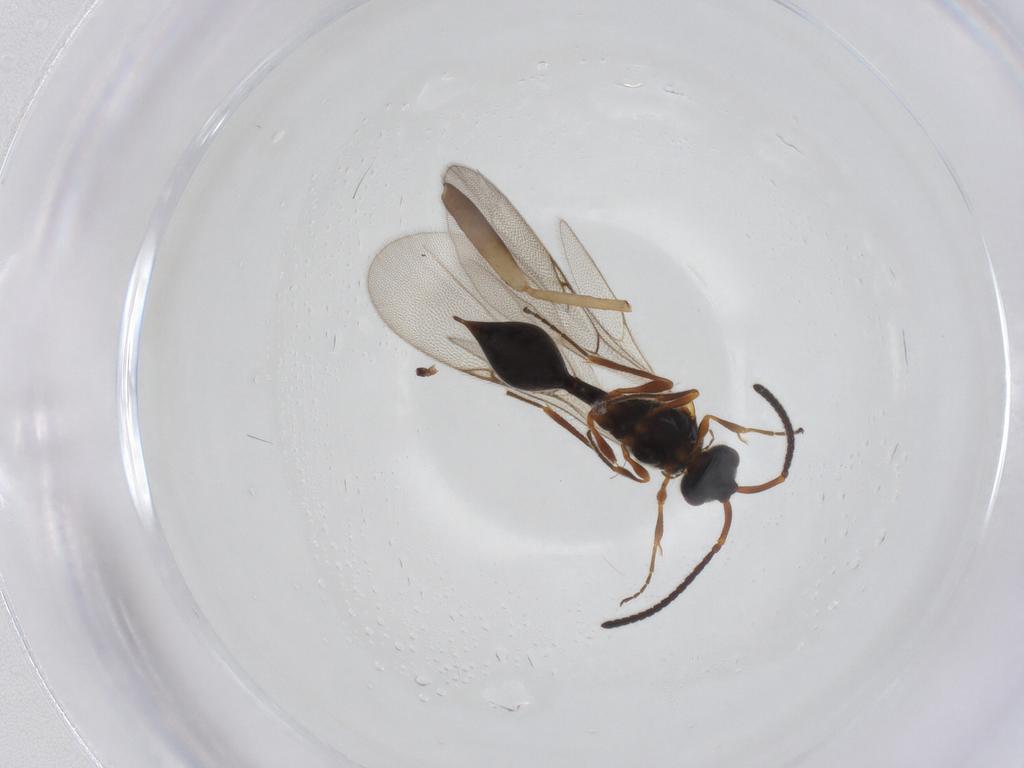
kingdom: Animalia
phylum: Arthropoda
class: Insecta
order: Hymenoptera
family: Diapriidae
